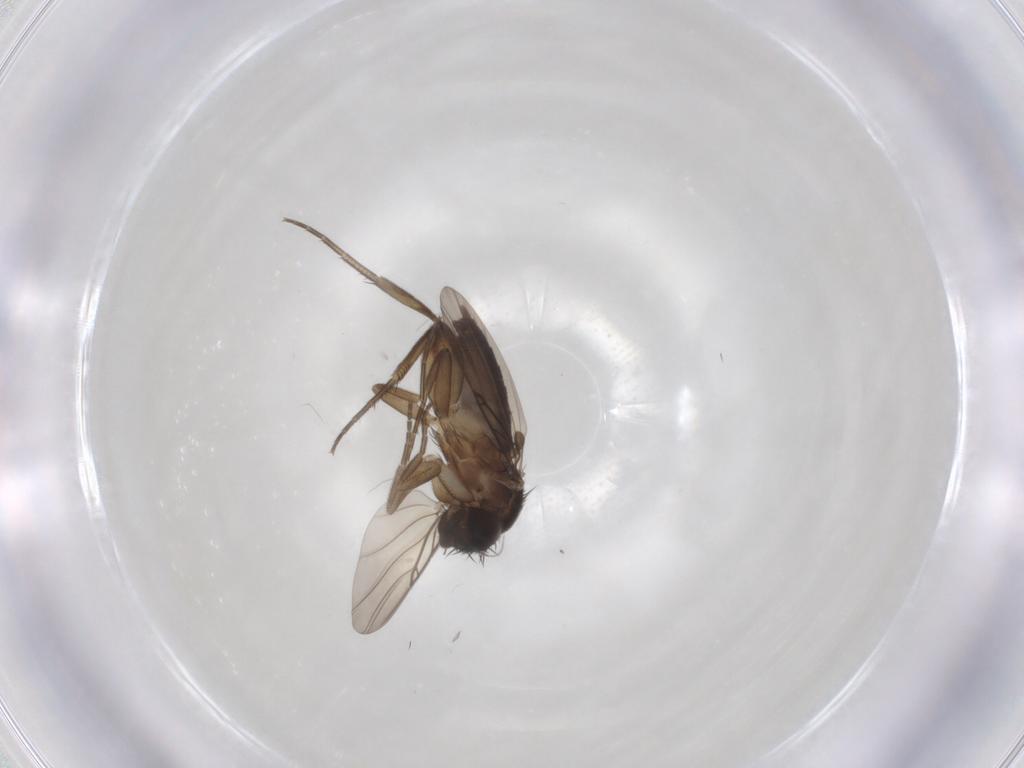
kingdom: Animalia
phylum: Arthropoda
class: Insecta
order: Diptera
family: Phoridae
